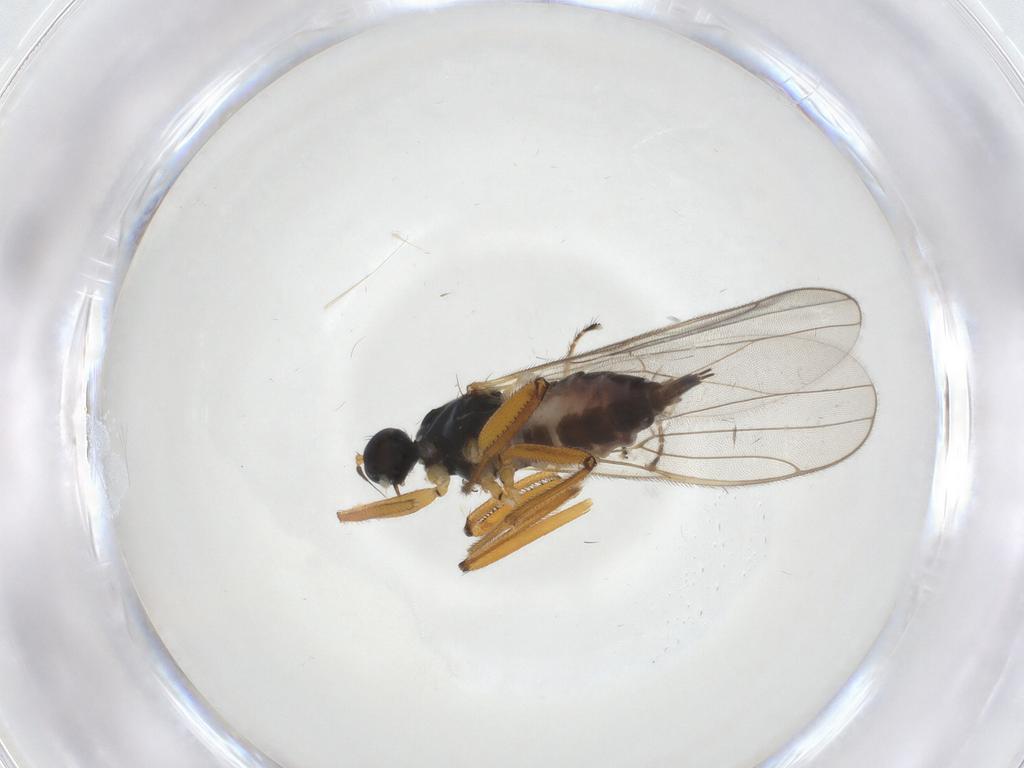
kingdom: Animalia
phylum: Arthropoda
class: Insecta
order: Diptera
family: Hybotidae
